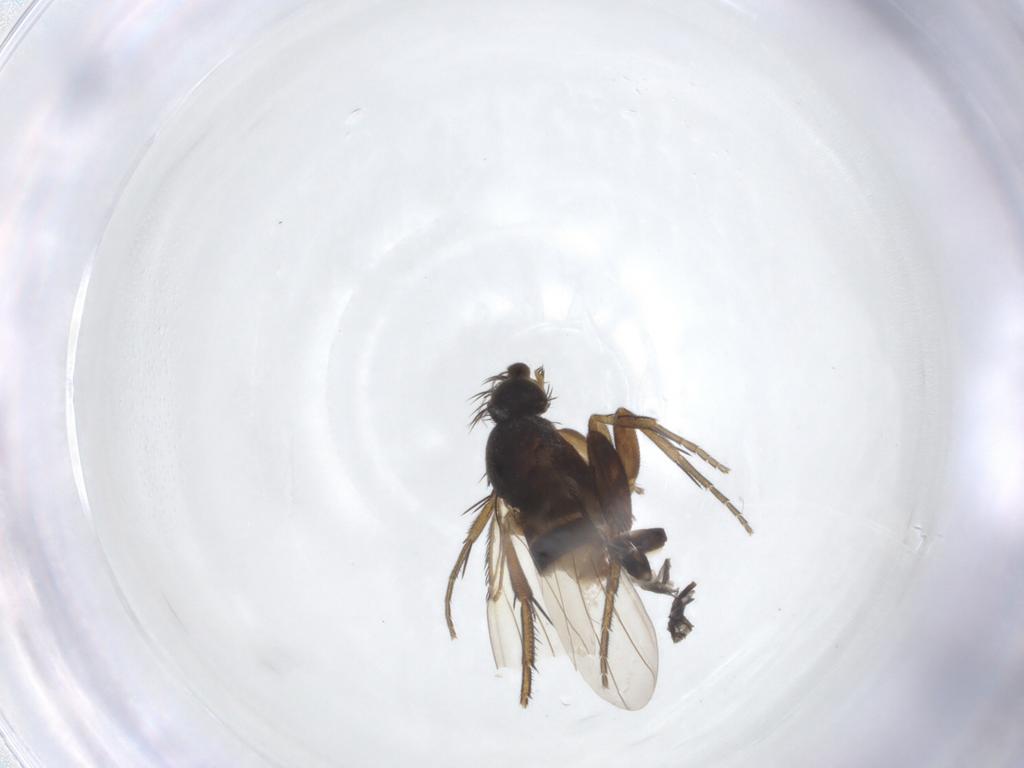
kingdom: Animalia
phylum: Arthropoda
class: Insecta
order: Diptera
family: Phoridae
